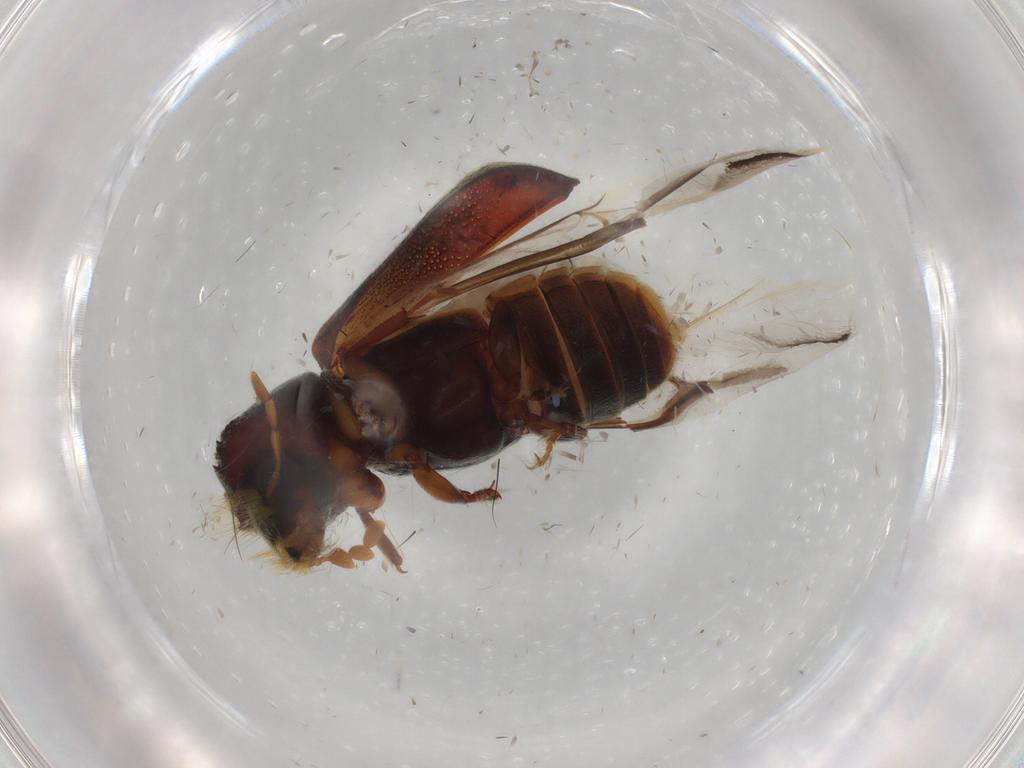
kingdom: Animalia
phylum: Arthropoda
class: Insecta
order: Coleoptera
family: Bostrichidae
